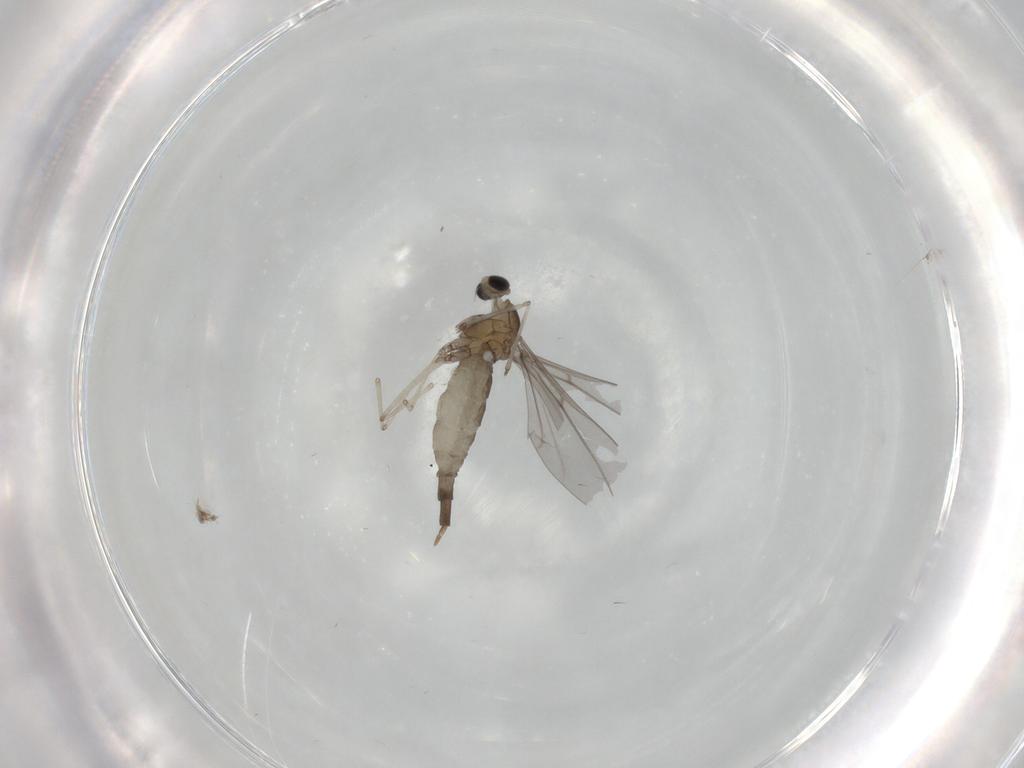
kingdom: Animalia
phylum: Arthropoda
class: Insecta
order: Diptera
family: Cecidomyiidae
